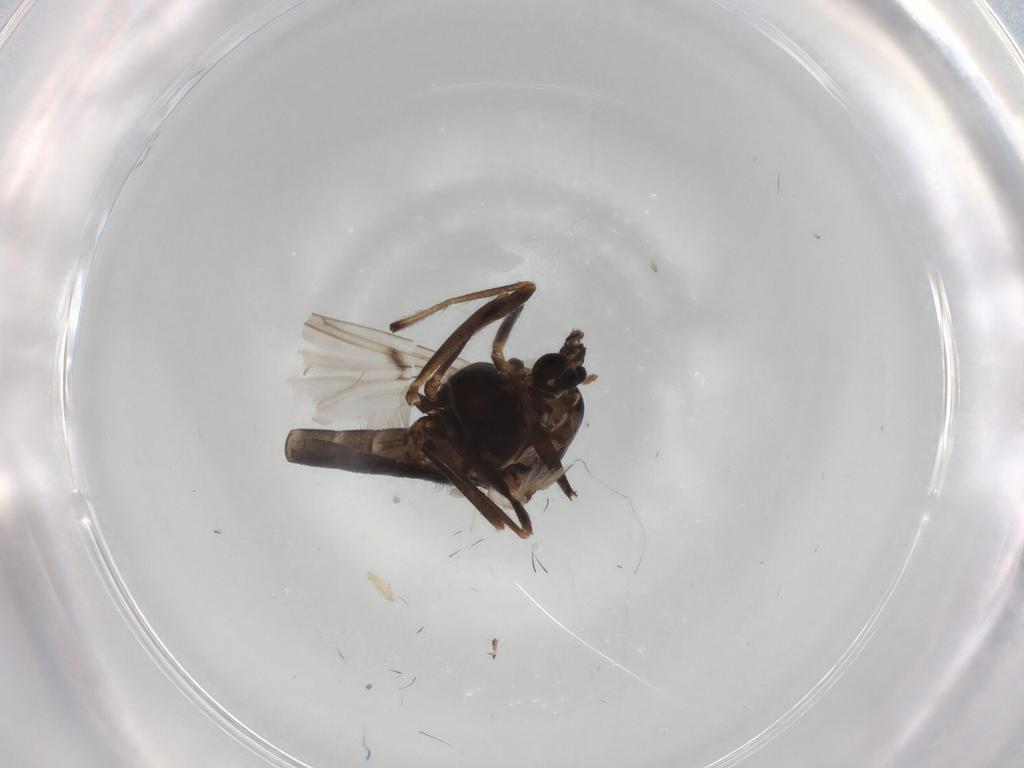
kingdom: Animalia
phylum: Arthropoda
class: Insecta
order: Diptera
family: Chironomidae
